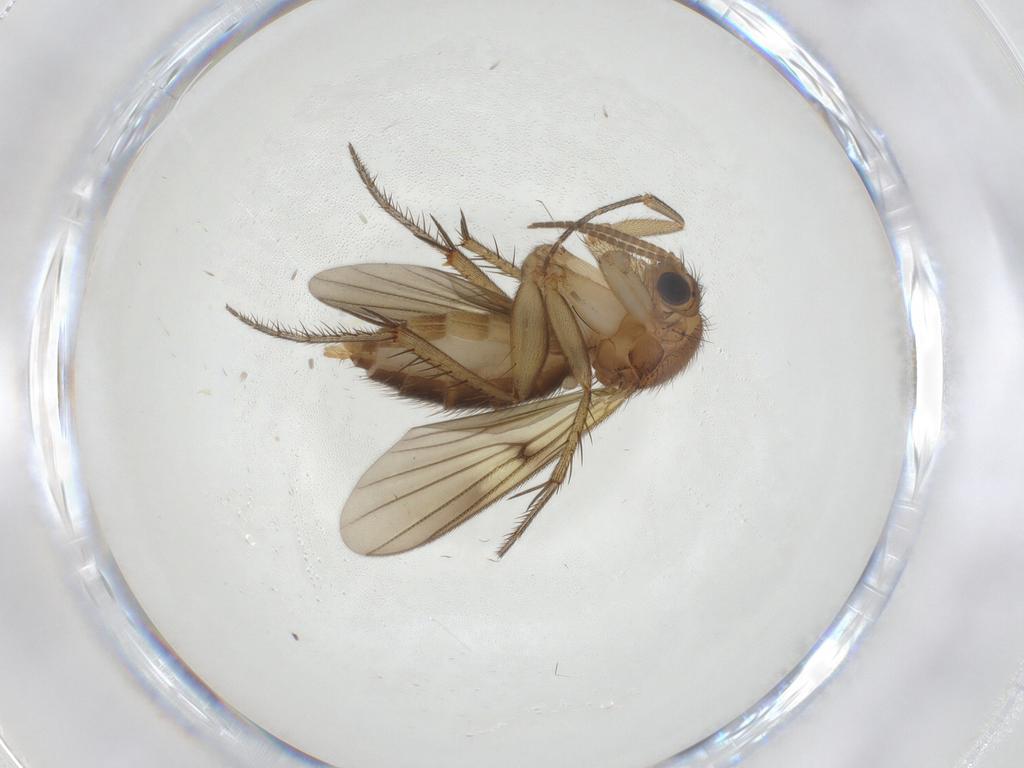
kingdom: Animalia
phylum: Arthropoda
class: Insecta
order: Diptera
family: Mycetophilidae
